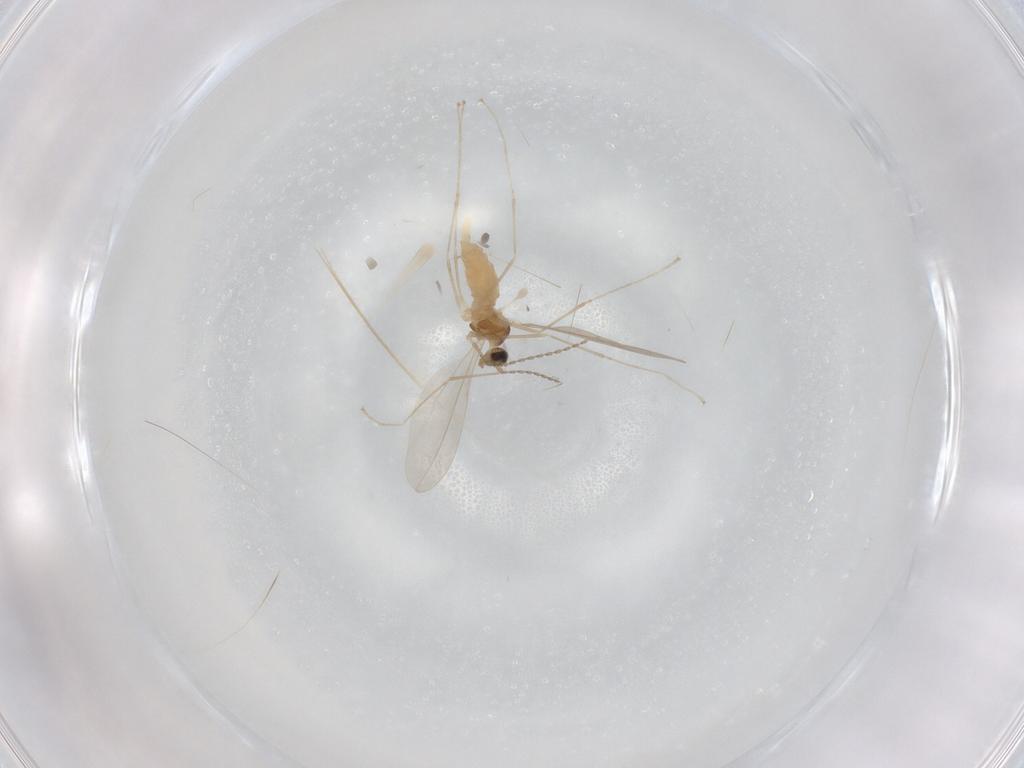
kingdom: Animalia
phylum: Arthropoda
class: Insecta
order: Diptera
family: Cecidomyiidae
